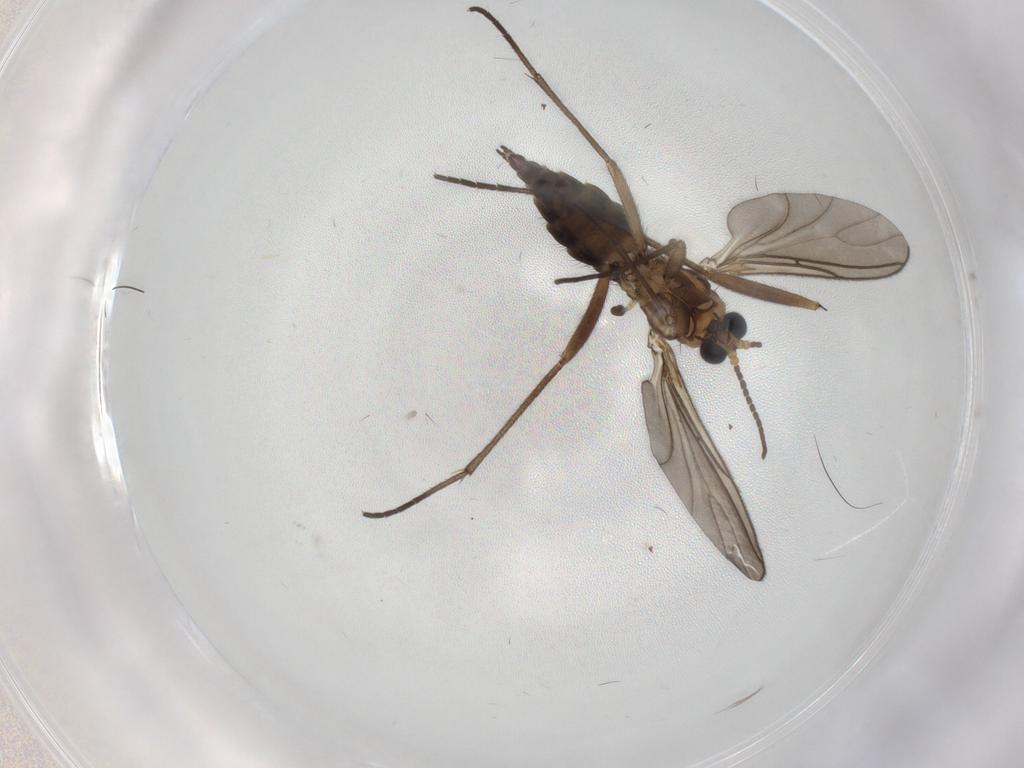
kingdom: Animalia
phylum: Arthropoda
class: Insecta
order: Diptera
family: Sciaridae
